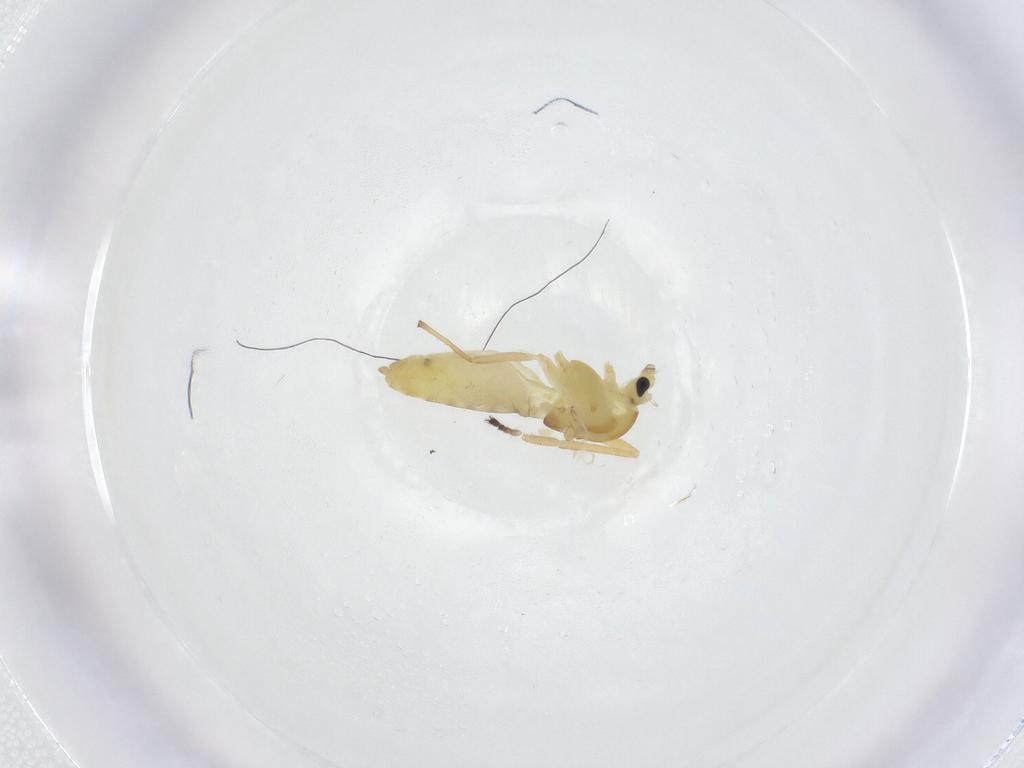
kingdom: Animalia
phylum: Arthropoda
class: Insecta
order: Diptera
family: Chironomidae
